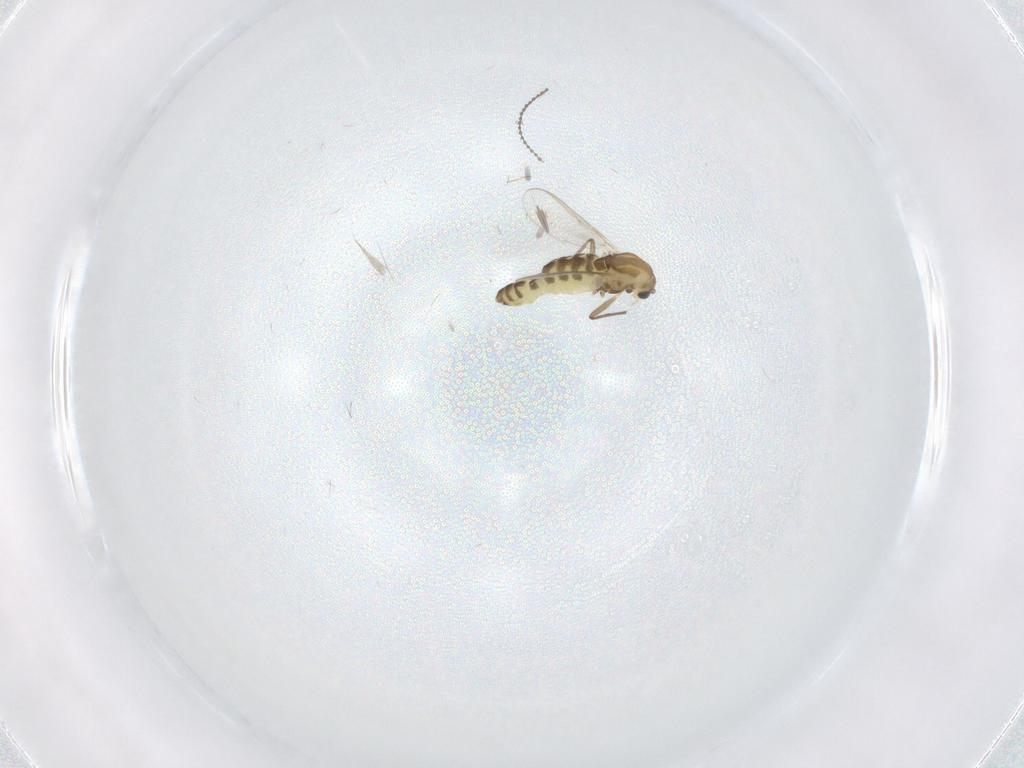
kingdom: Animalia
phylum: Arthropoda
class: Insecta
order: Diptera
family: Chironomidae
